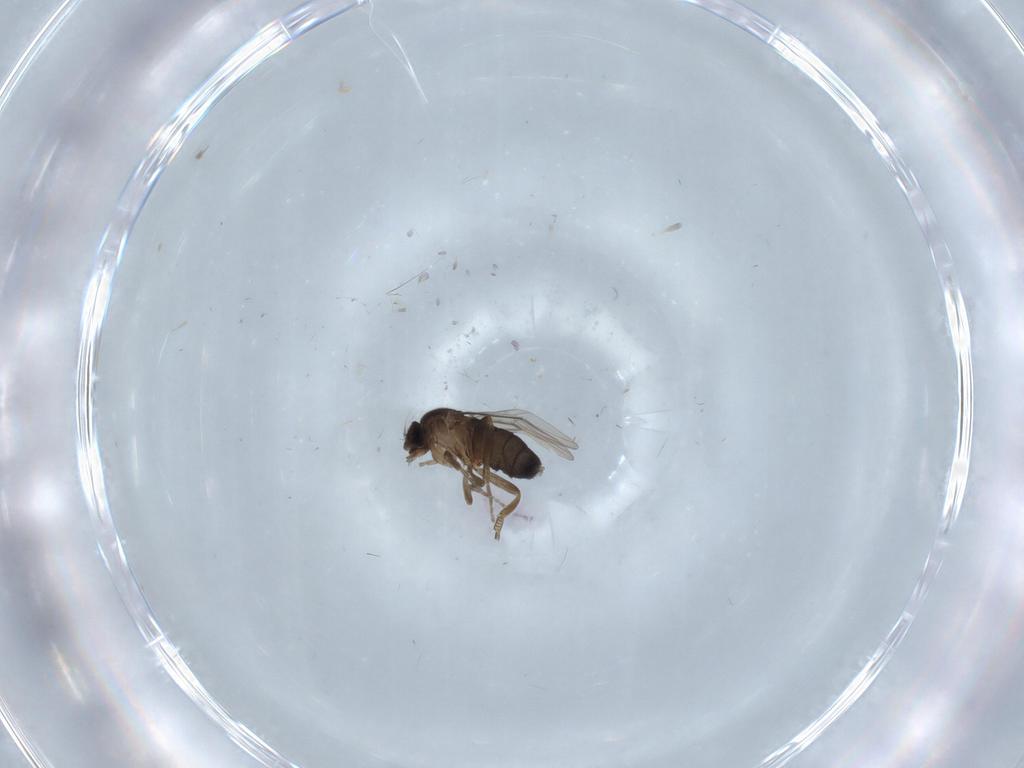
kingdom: Animalia
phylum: Arthropoda
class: Insecta
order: Diptera
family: Phoridae
